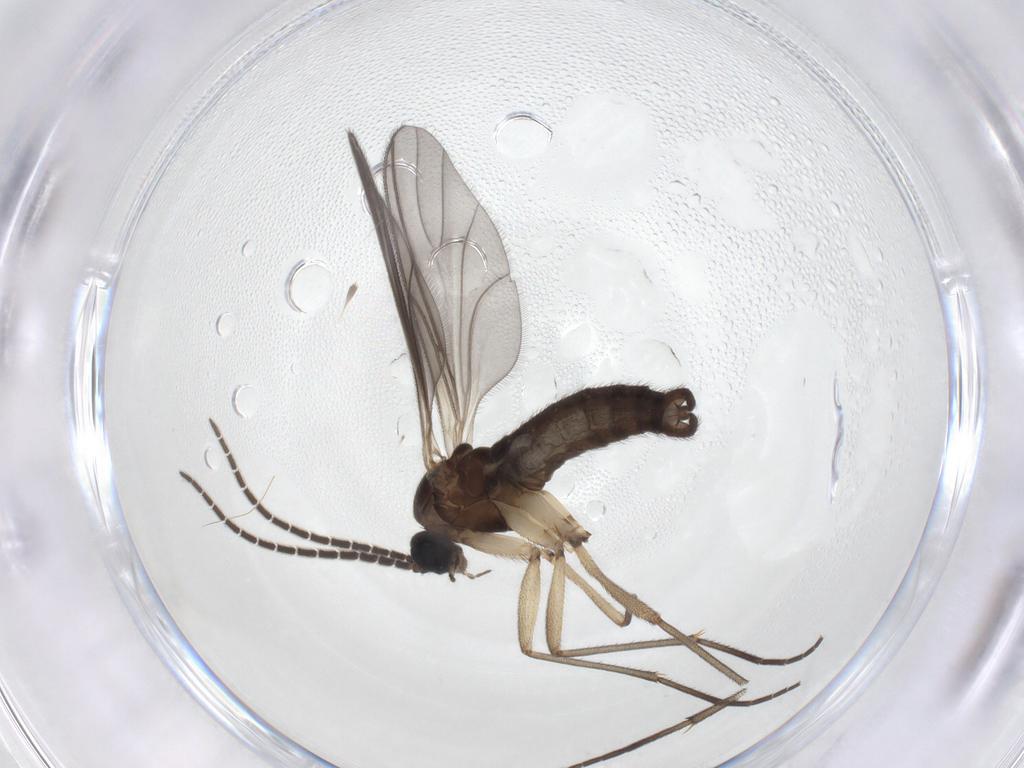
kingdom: Animalia
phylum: Arthropoda
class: Insecta
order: Diptera
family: Sciaridae
